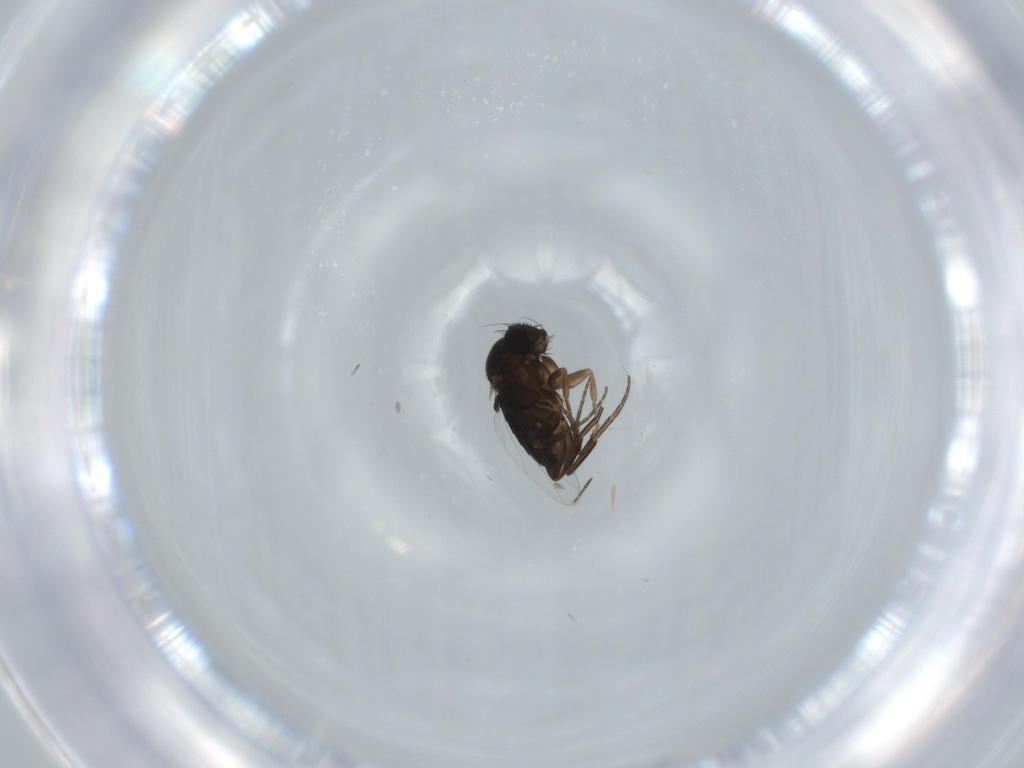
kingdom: Animalia
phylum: Arthropoda
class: Insecta
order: Diptera
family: Phoridae
